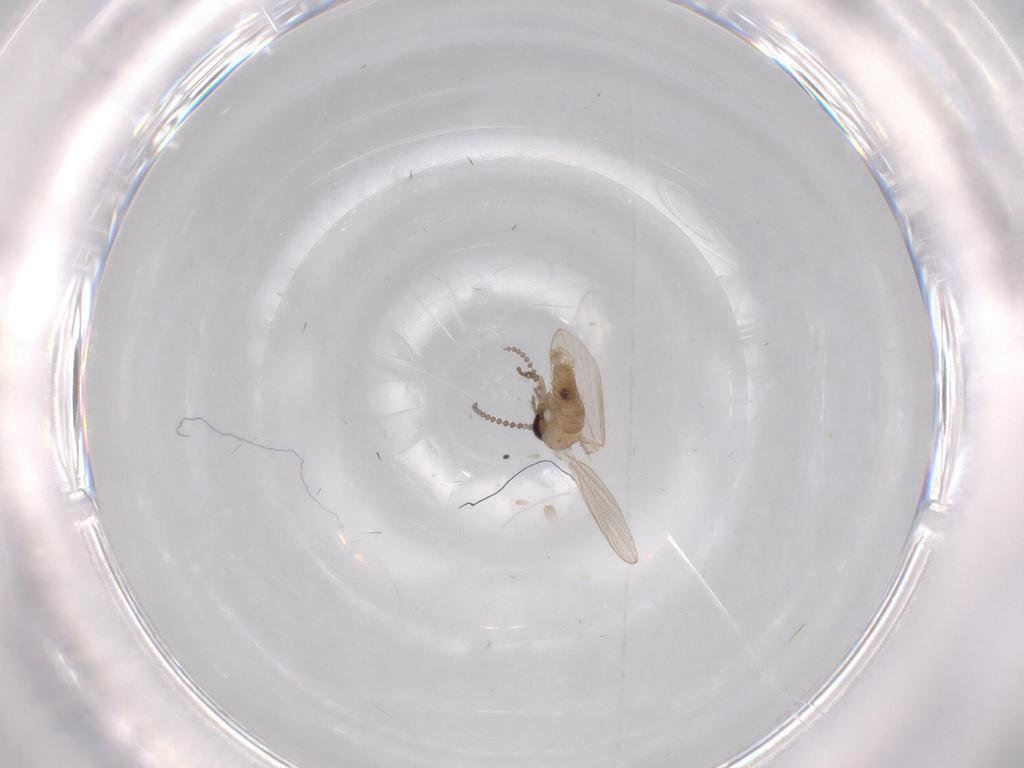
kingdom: Animalia
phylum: Arthropoda
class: Insecta
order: Diptera
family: Psychodidae
